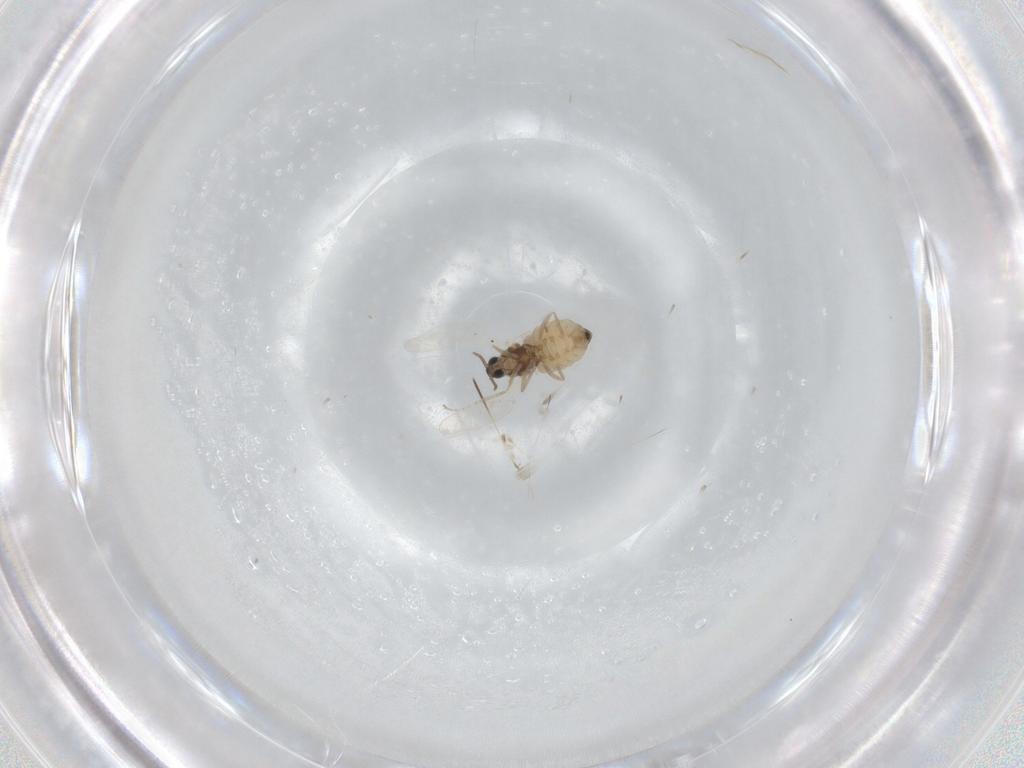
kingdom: Animalia
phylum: Arthropoda
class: Insecta
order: Diptera
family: Cecidomyiidae
